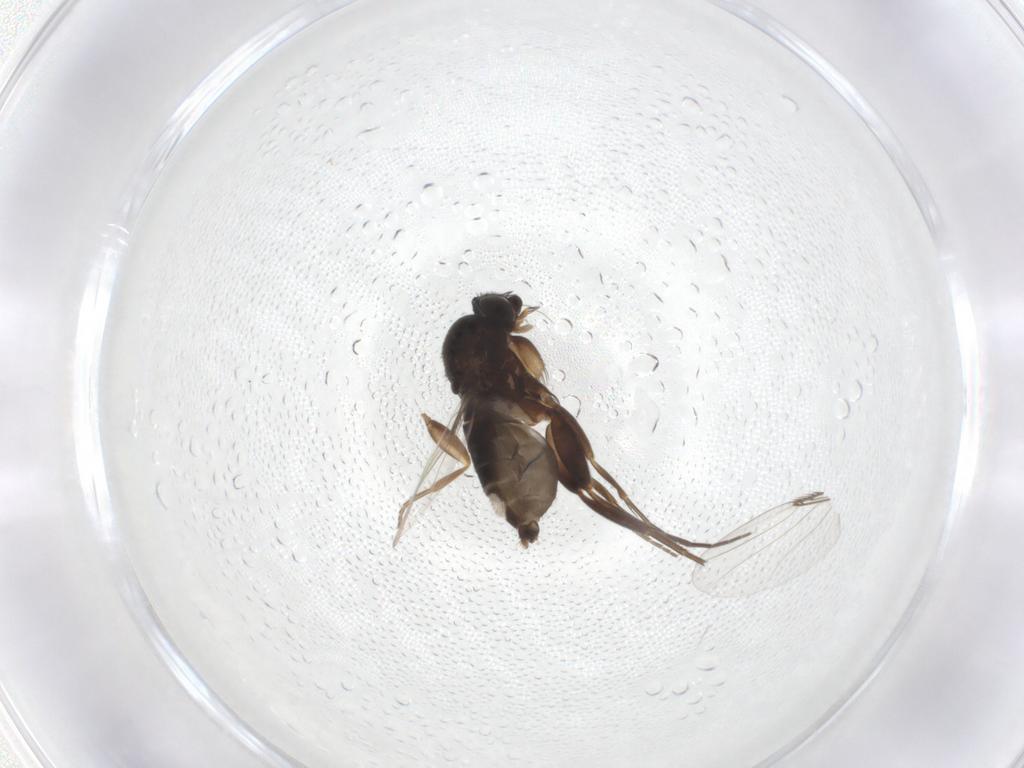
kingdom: Animalia
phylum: Arthropoda
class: Insecta
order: Diptera
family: Phoridae
